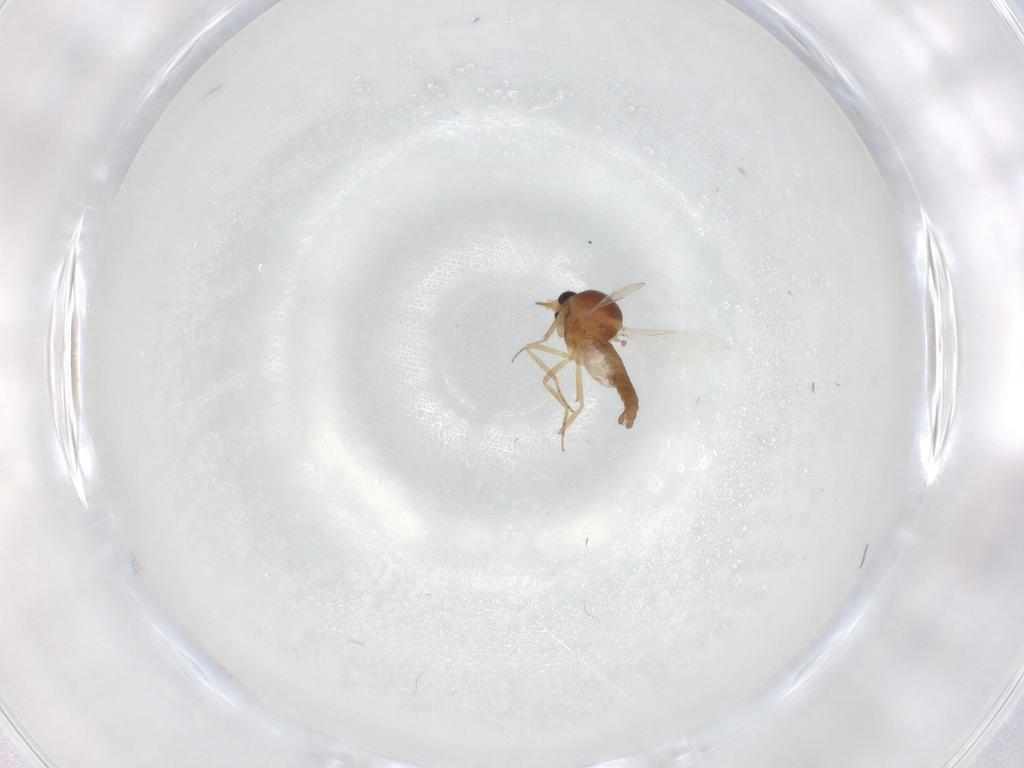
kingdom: Animalia
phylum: Arthropoda
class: Insecta
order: Diptera
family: Ceratopogonidae
